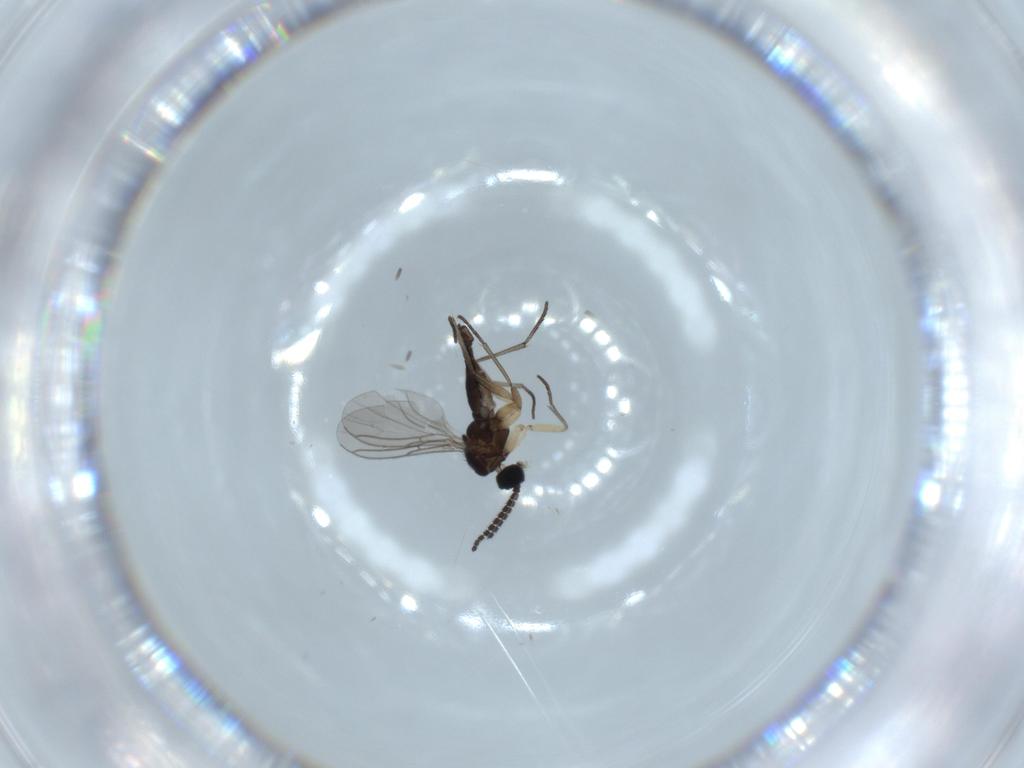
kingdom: Animalia
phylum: Arthropoda
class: Insecta
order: Diptera
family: Sciaridae
